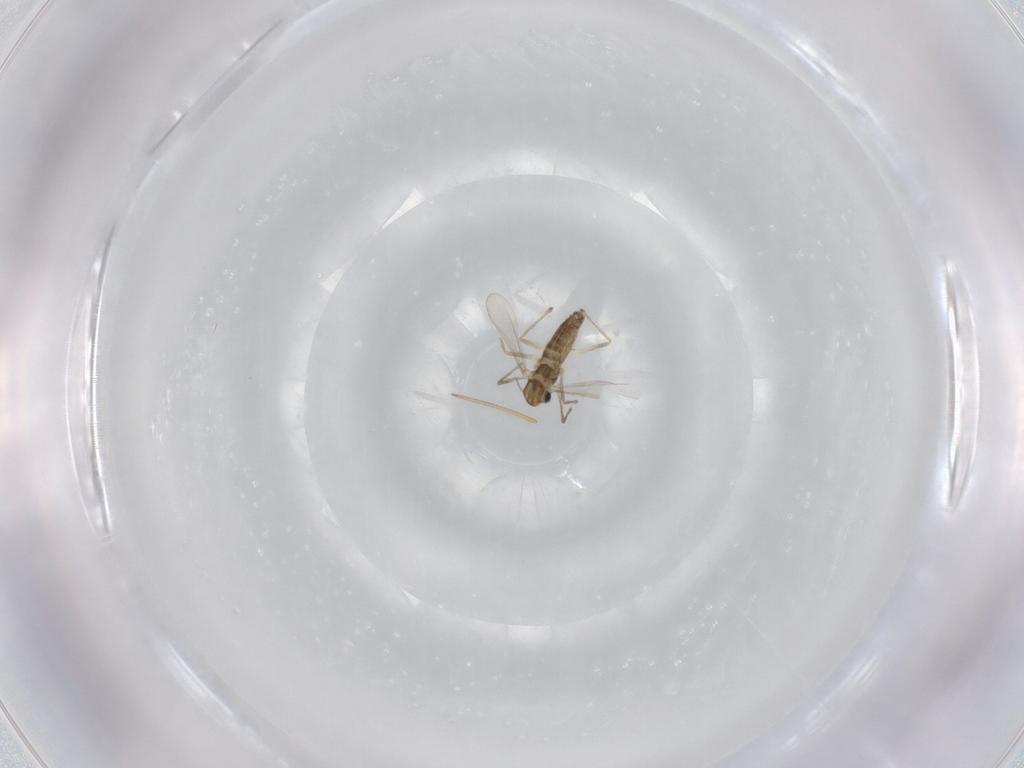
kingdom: Animalia
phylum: Arthropoda
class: Insecta
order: Diptera
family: Chironomidae
